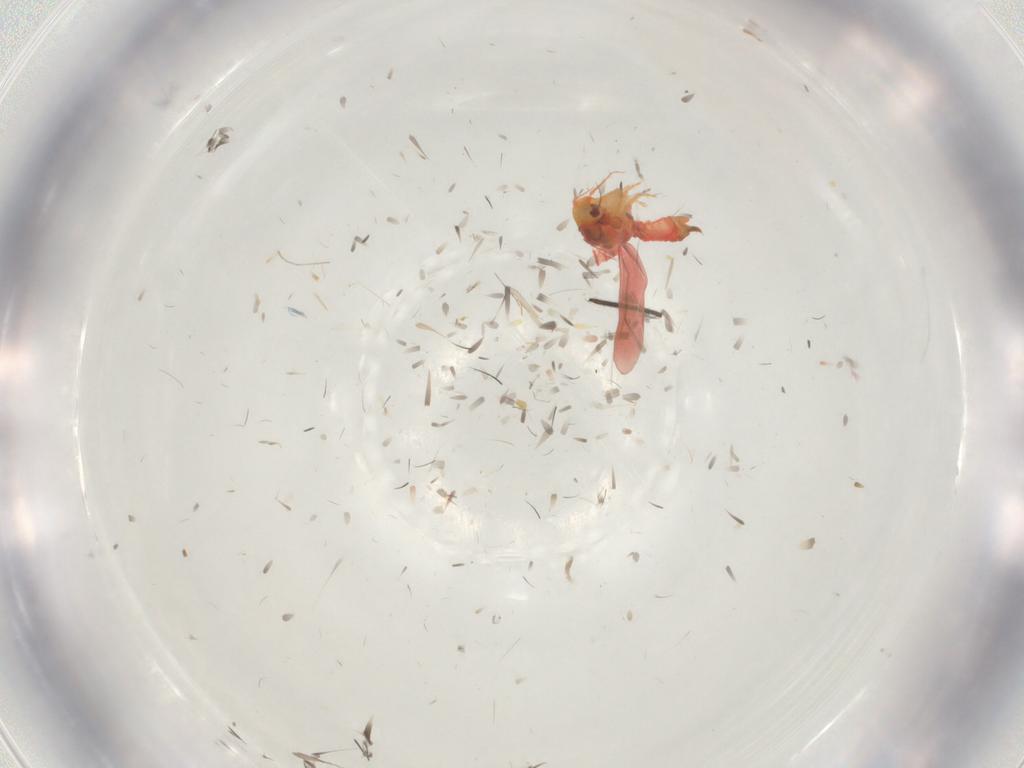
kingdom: Animalia
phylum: Arthropoda
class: Insecta
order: Hemiptera
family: Aleyrodidae
